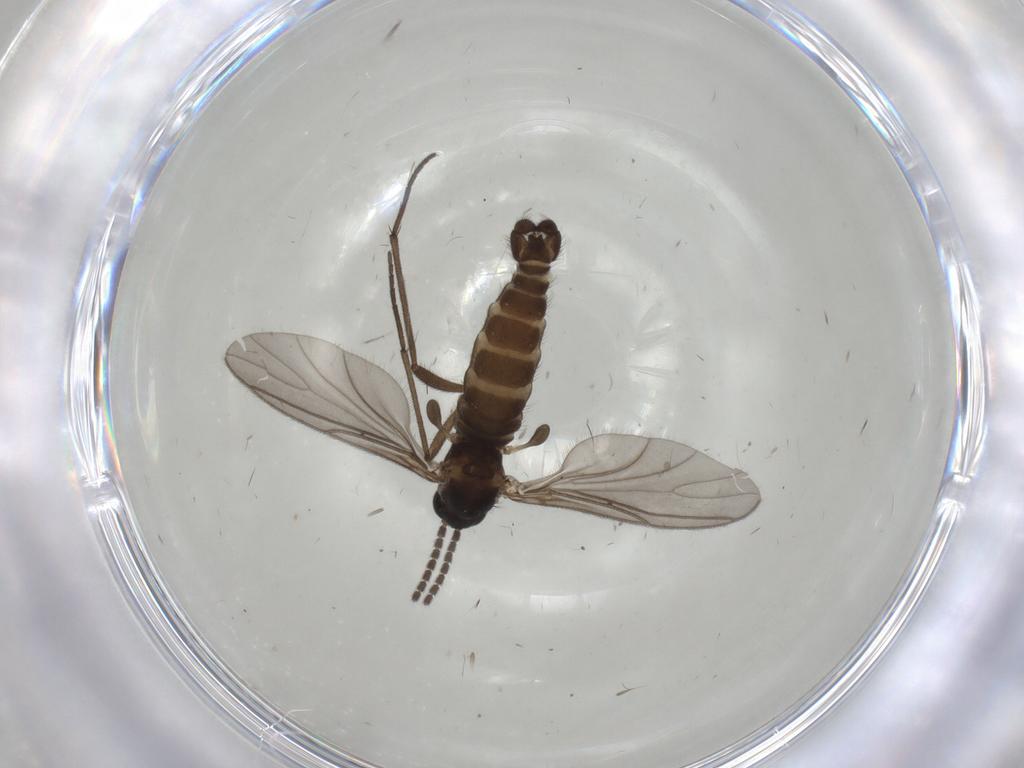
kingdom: Animalia
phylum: Arthropoda
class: Insecta
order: Diptera
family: Sciaridae
